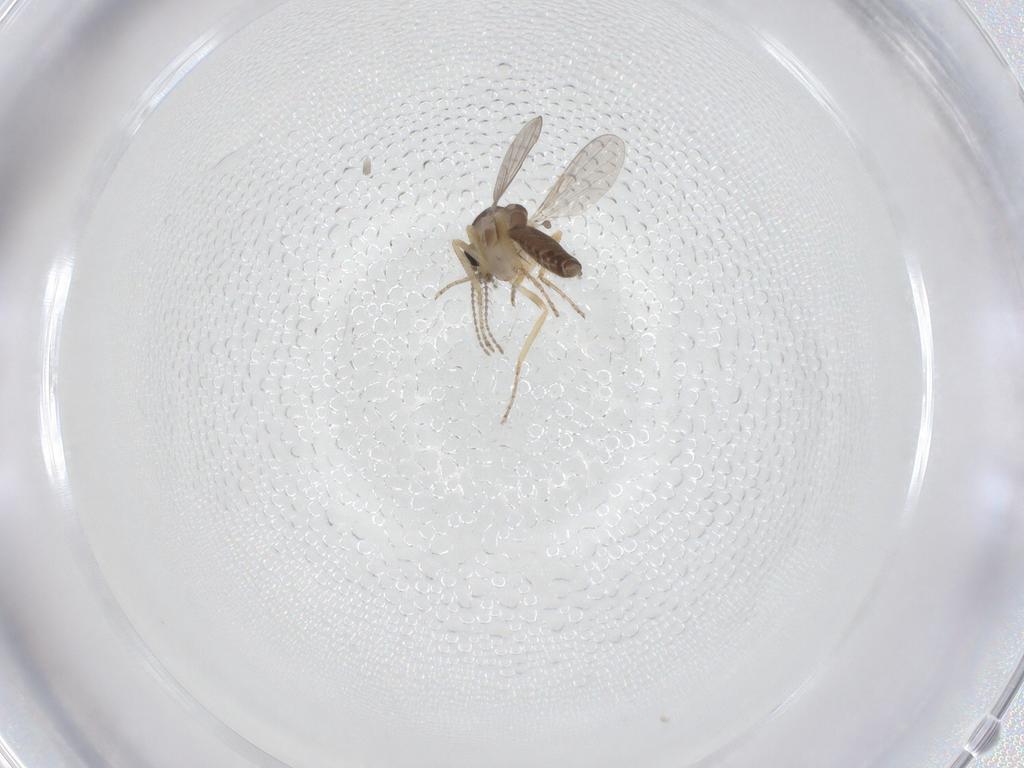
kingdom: Animalia
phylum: Arthropoda
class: Insecta
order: Diptera
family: Ceratopogonidae
